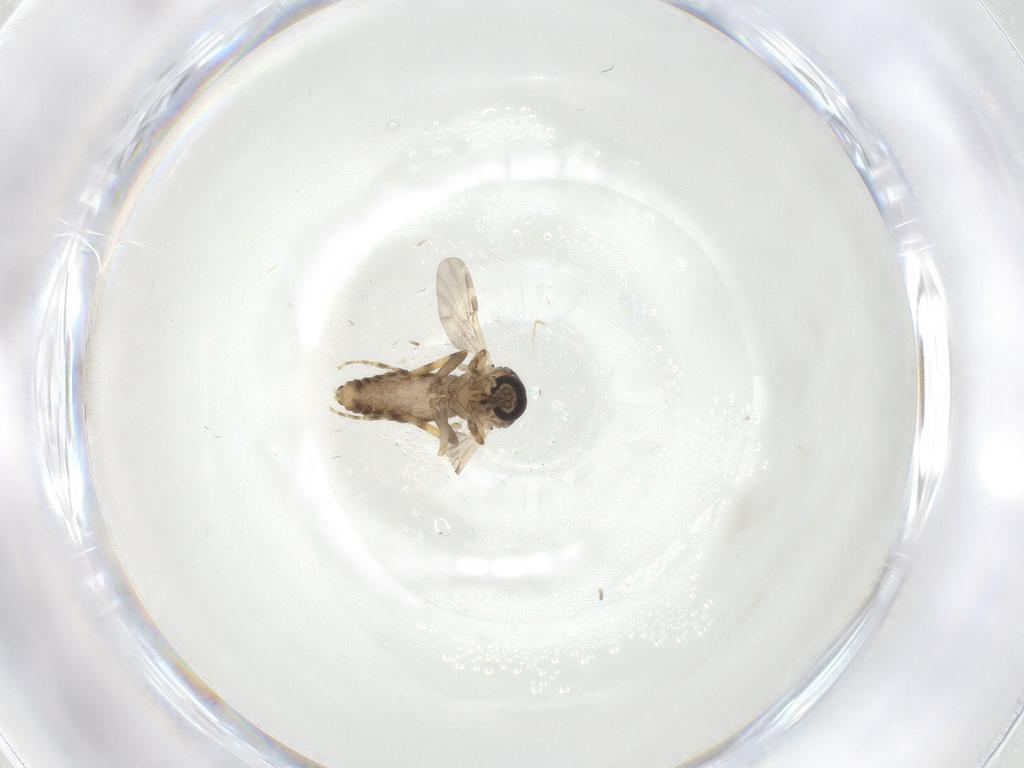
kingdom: Animalia
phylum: Arthropoda
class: Insecta
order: Diptera
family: Ceratopogonidae
